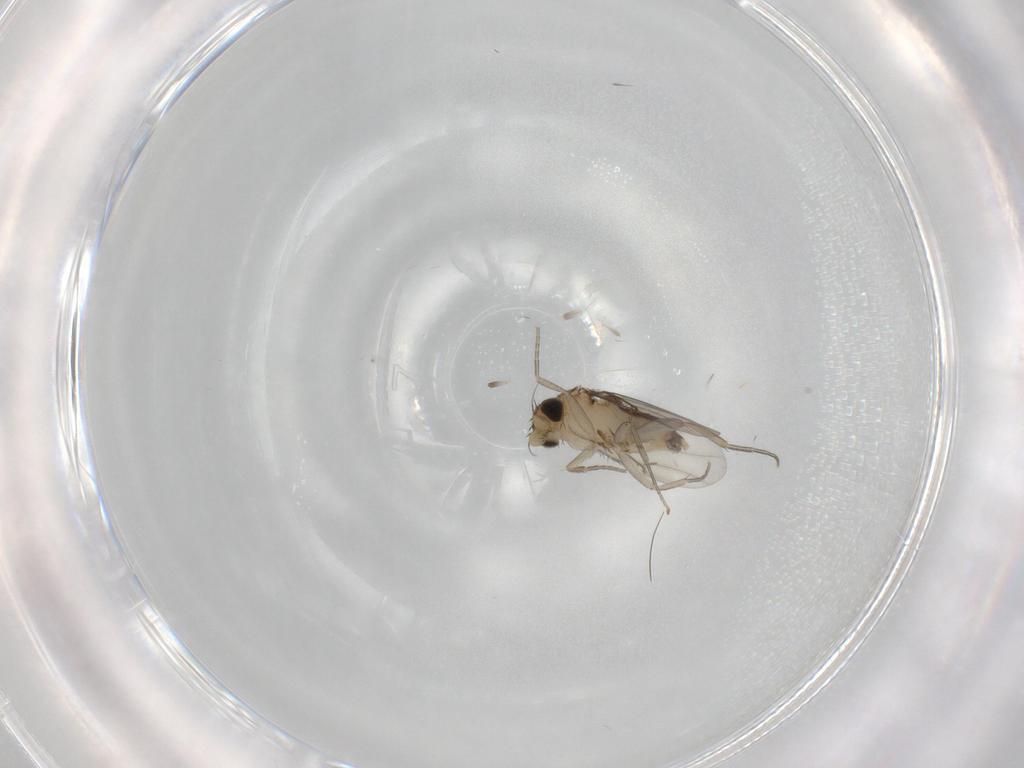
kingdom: Animalia
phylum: Arthropoda
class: Insecta
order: Diptera
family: Phoridae
